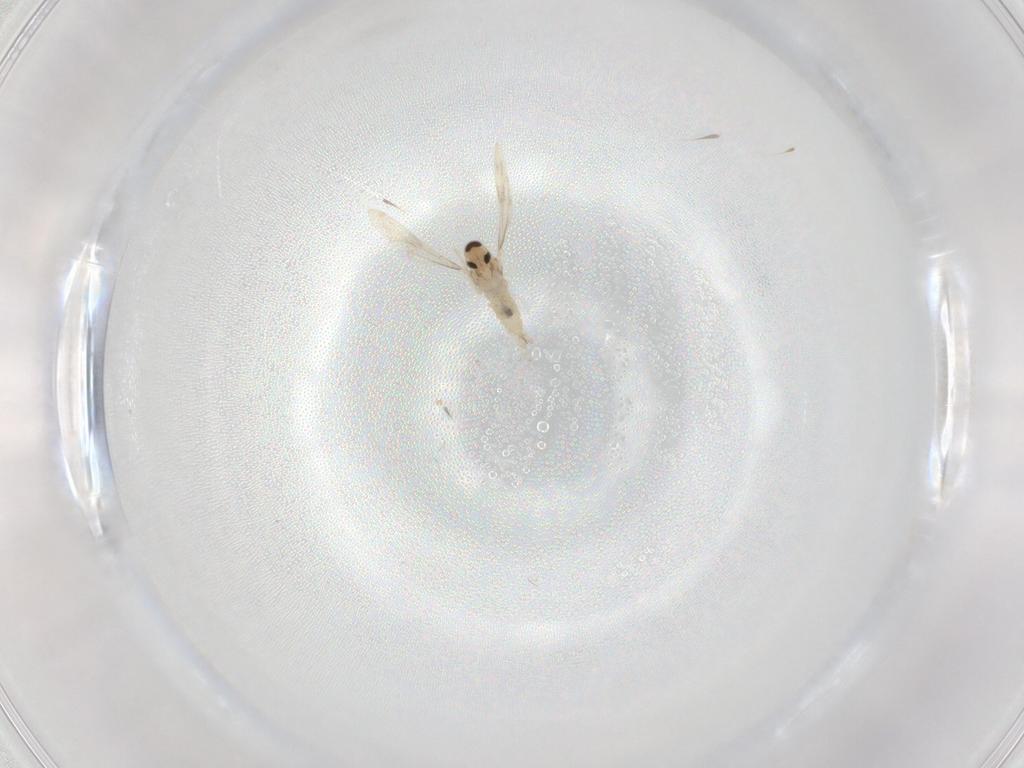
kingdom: Animalia
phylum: Arthropoda
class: Insecta
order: Diptera
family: Cecidomyiidae
